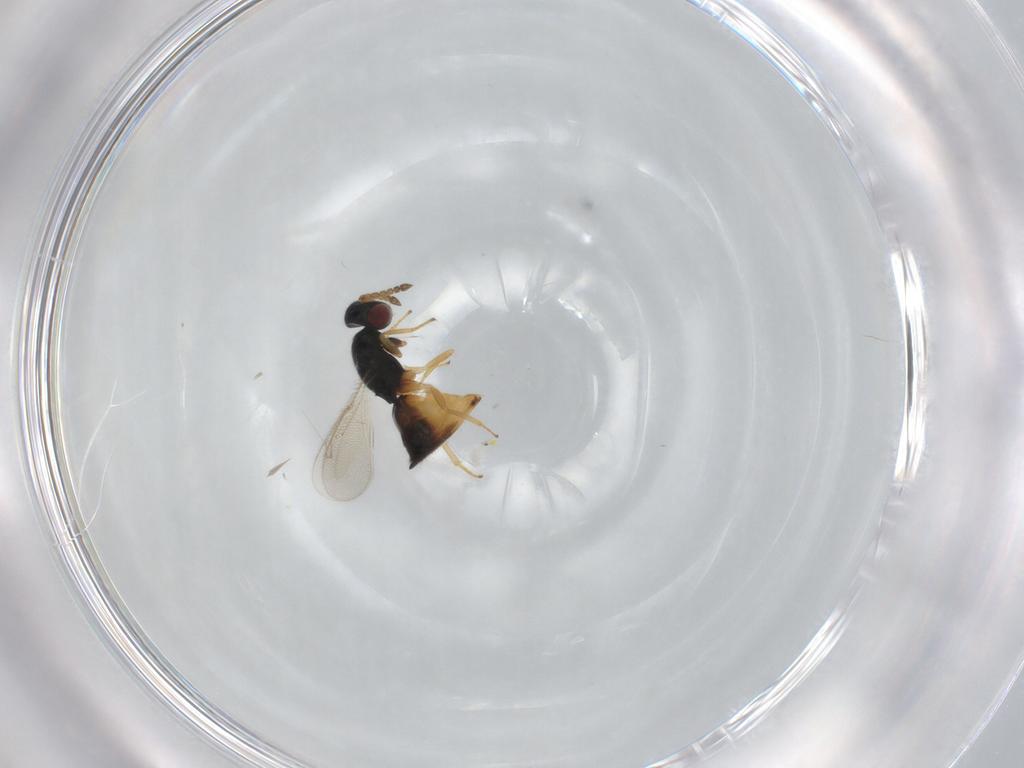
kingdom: Animalia
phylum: Arthropoda
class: Insecta
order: Hymenoptera
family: Eulophidae
